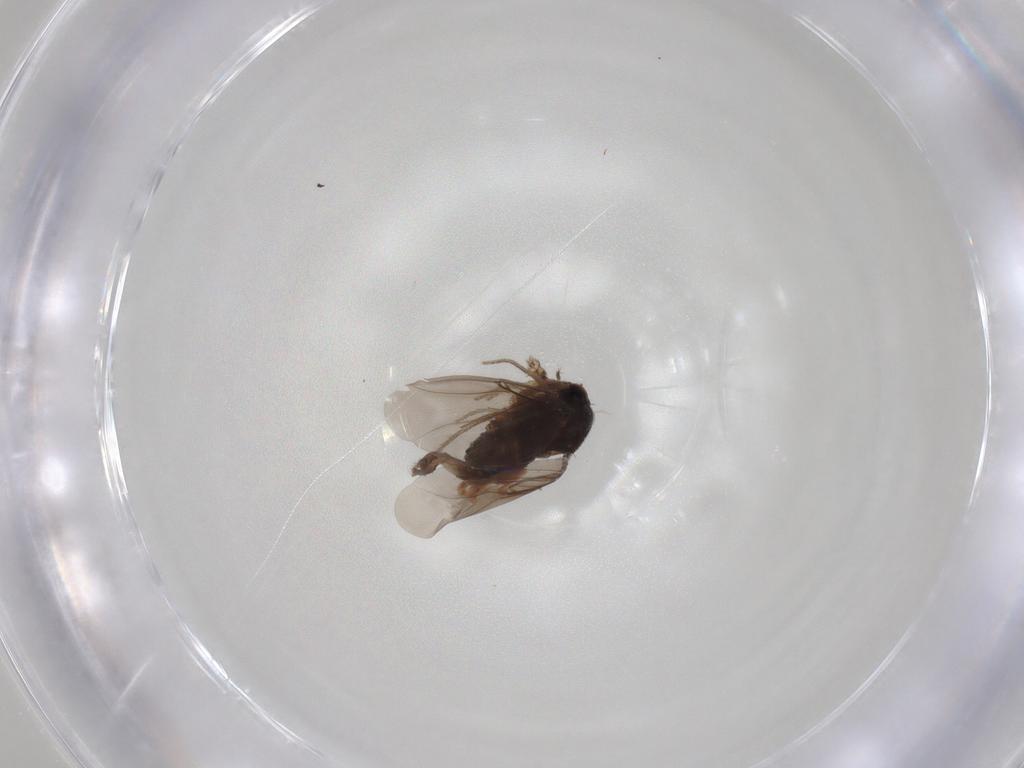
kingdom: Animalia
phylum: Arthropoda
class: Insecta
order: Diptera
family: Phoridae
